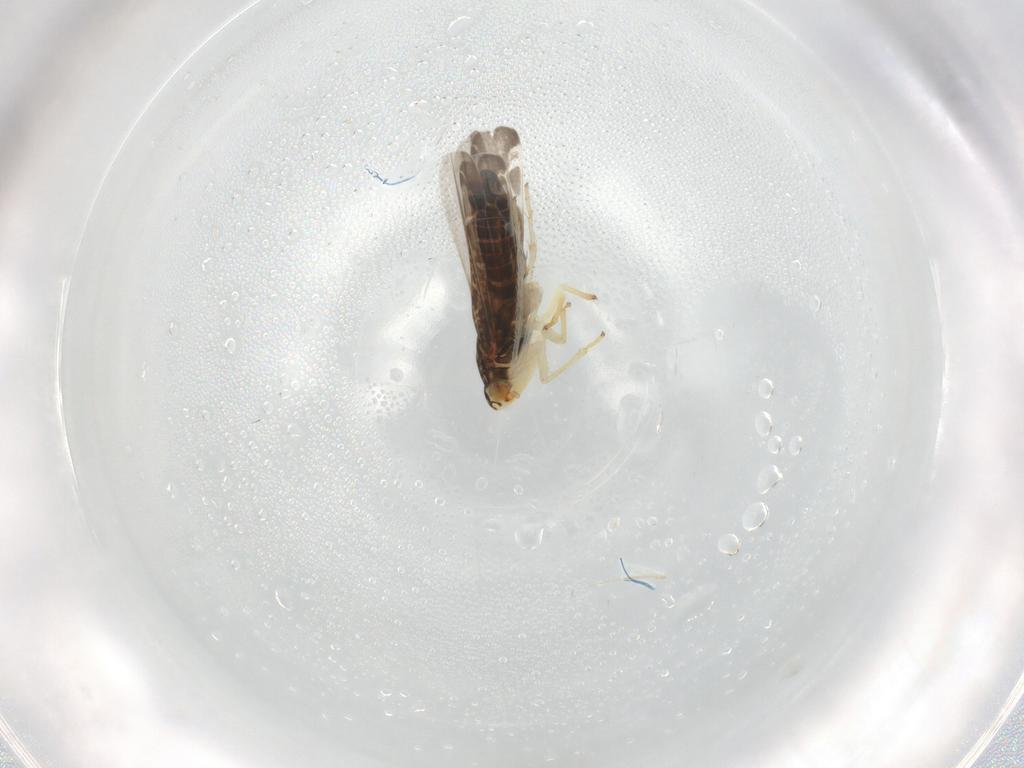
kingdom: Animalia
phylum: Arthropoda
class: Insecta
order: Hemiptera
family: Cicadellidae
